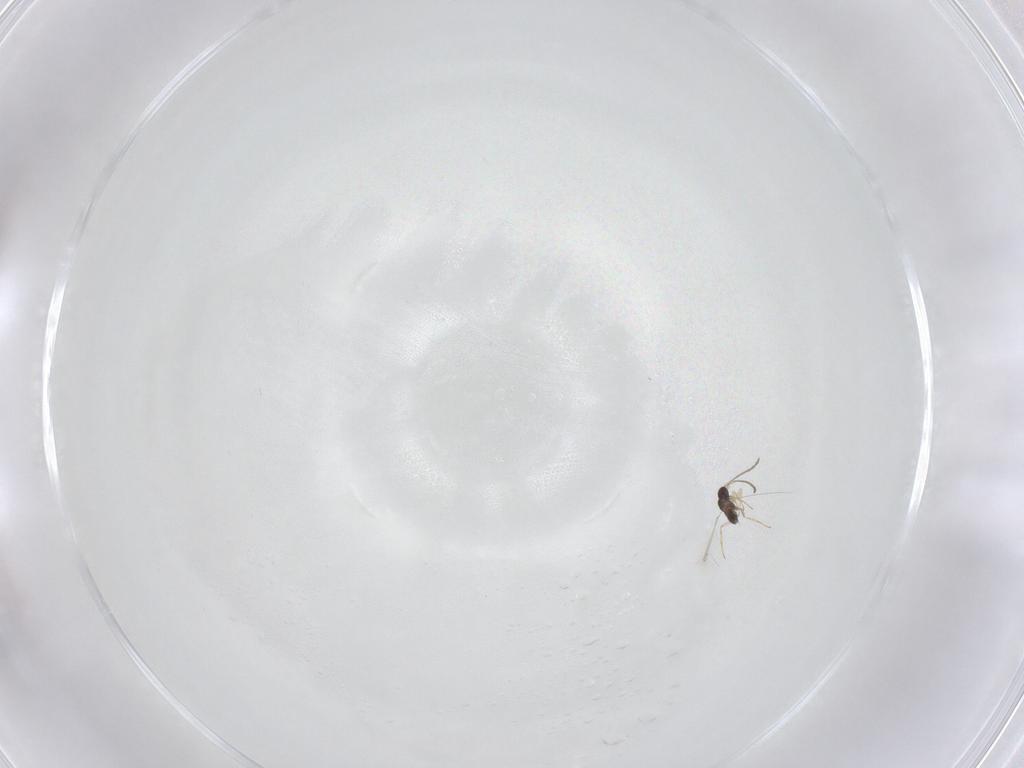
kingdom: Animalia
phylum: Arthropoda
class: Insecta
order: Hymenoptera
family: Mymaridae
